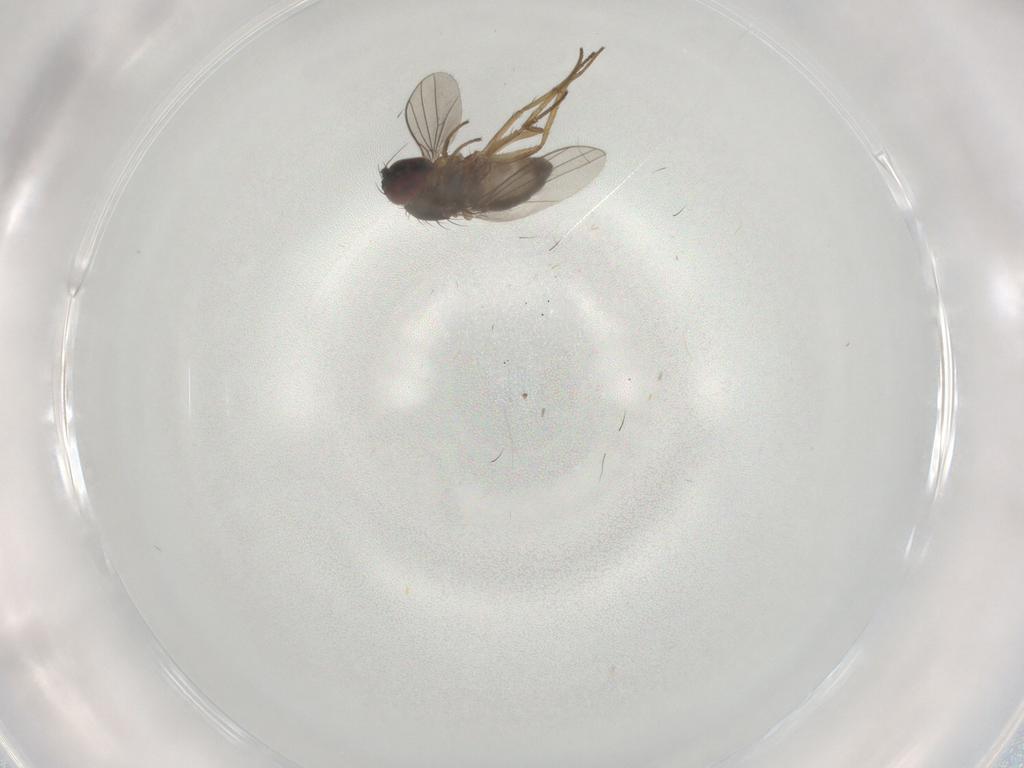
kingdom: Animalia
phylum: Arthropoda
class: Insecta
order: Diptera
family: Dolichopodidae
